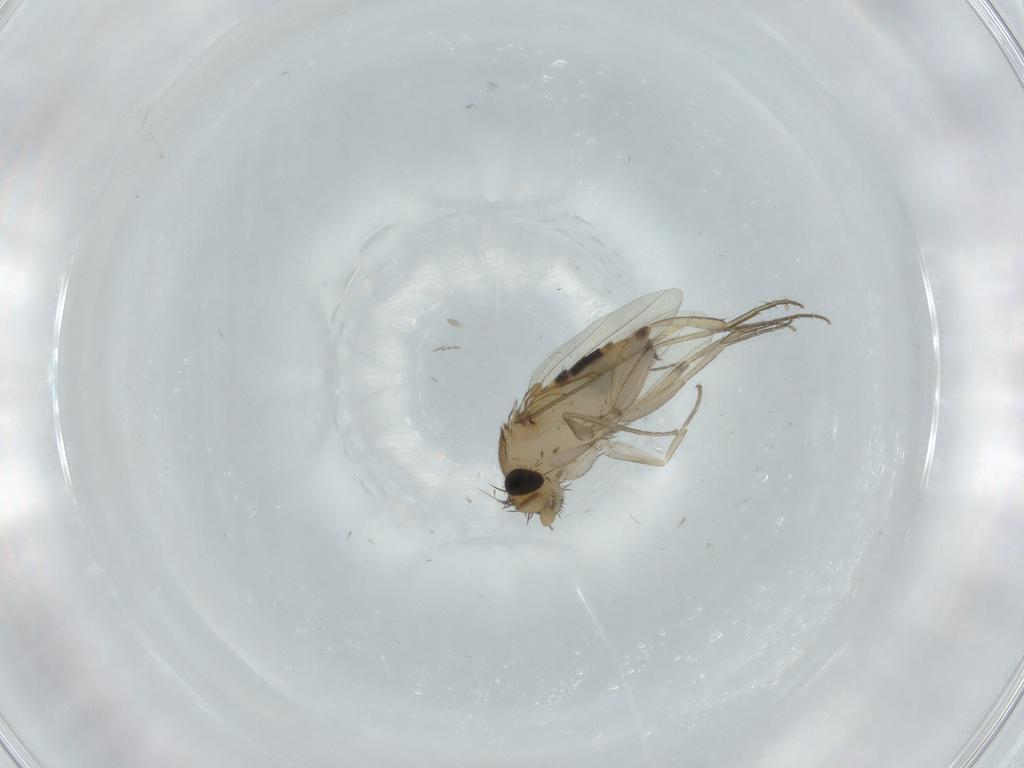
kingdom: Animalia
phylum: Arthropoda
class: Insecta
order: Diptera
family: Phoridae
